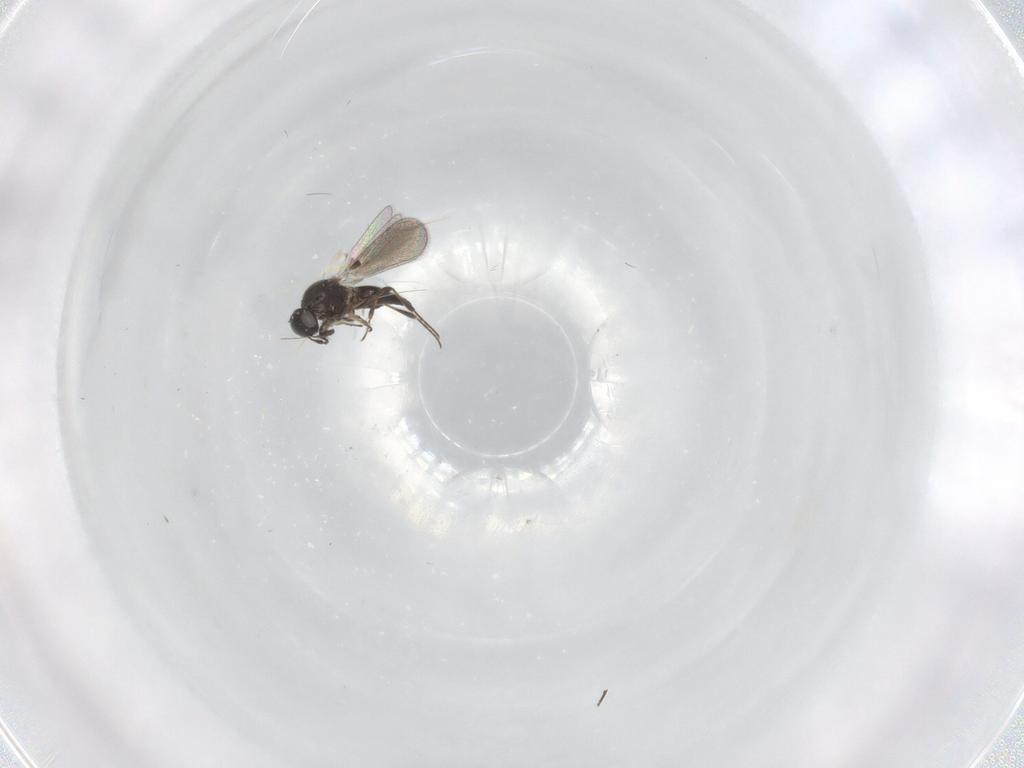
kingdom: Animalia
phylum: Arthropoda
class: Insecta
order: Hymenoptera
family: Platygastridae
